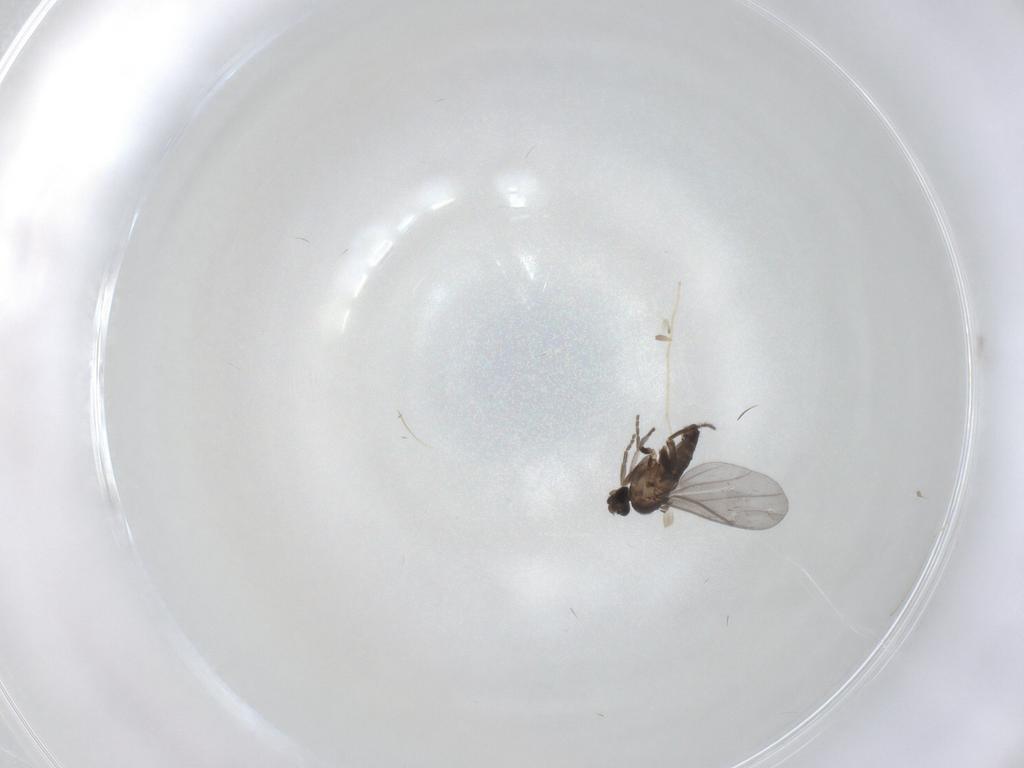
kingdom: Animalia
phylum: Arthropoda
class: Insecta
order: Diptera
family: Phoridae
